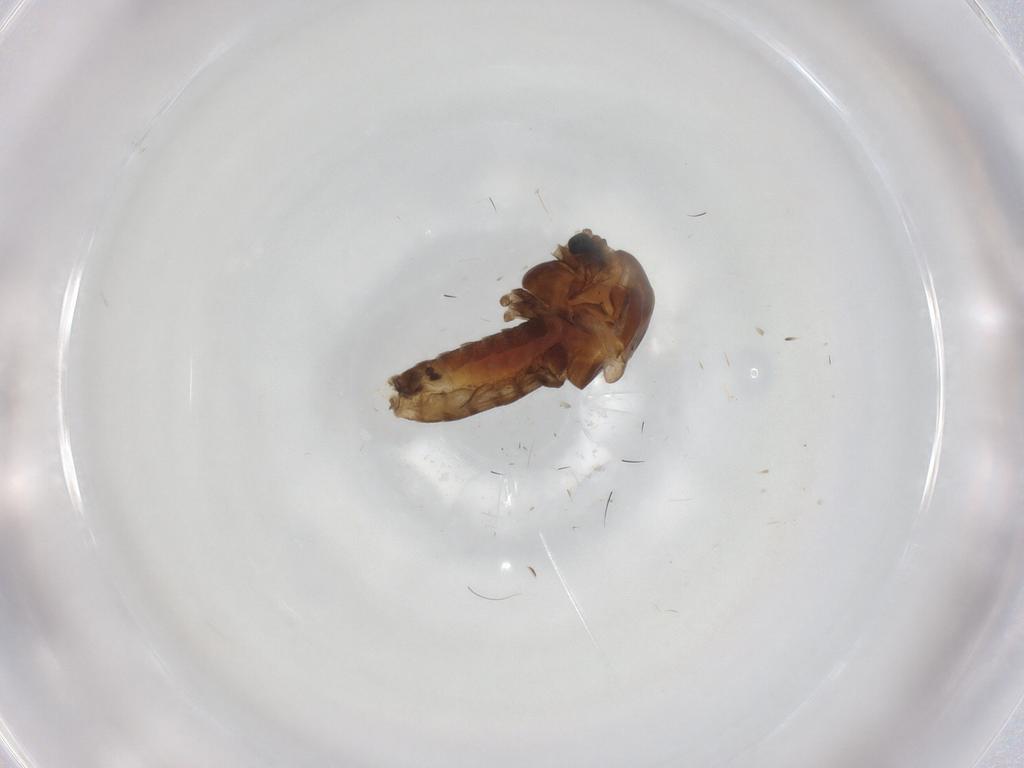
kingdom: Animalia
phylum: Arthropoda
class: Insecta
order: Diptera
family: Chironomidae
